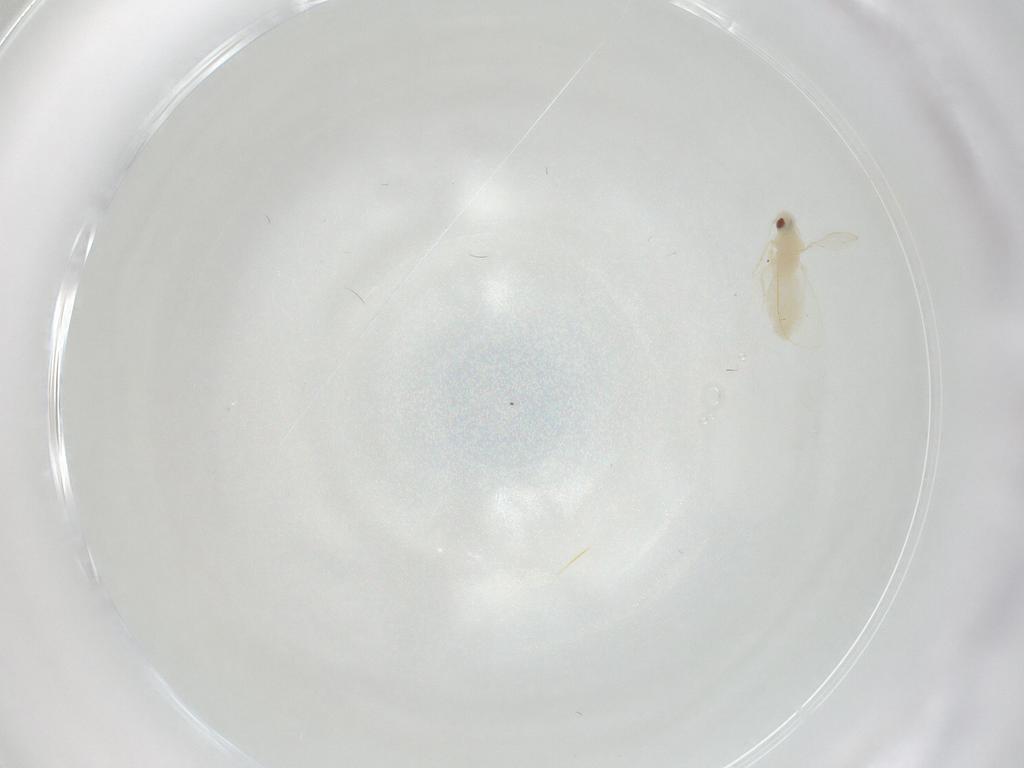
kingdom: Animalia
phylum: Arthropoda
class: Insecta
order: Hemiptera
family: Aleyrodidae
